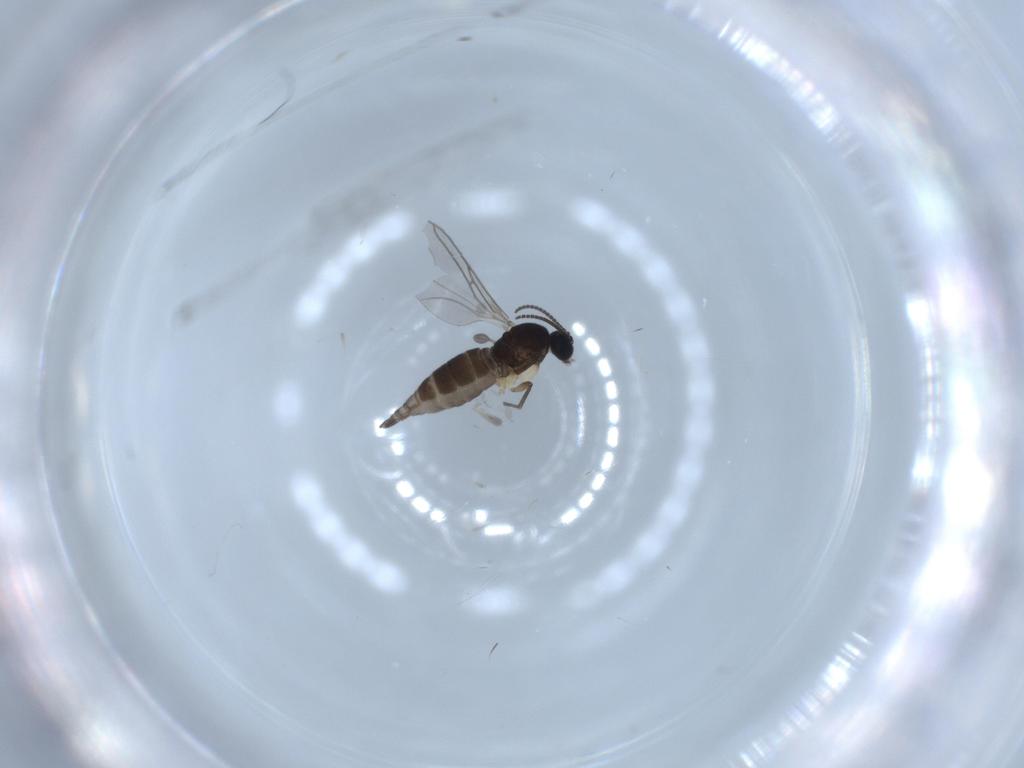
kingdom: Animalia
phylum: Arthropoda
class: Insecta
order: Diptera
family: Sciaridae
